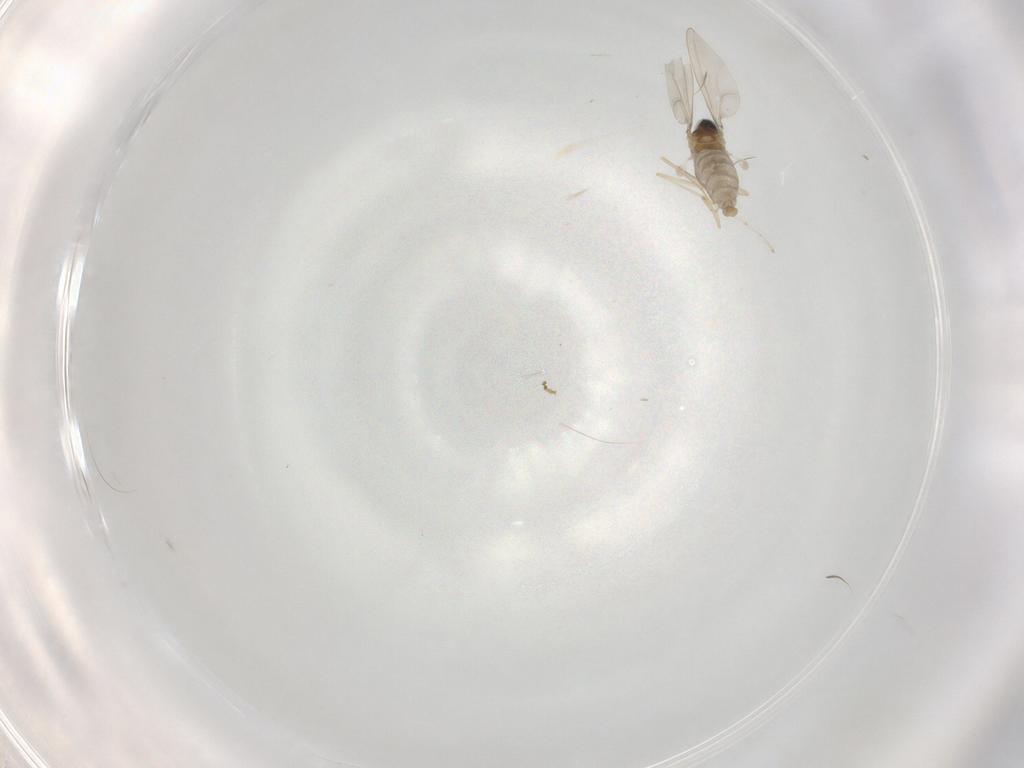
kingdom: Animalia
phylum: Arthropoda
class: Insecta
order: Diptera
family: Cecidomyiidae
